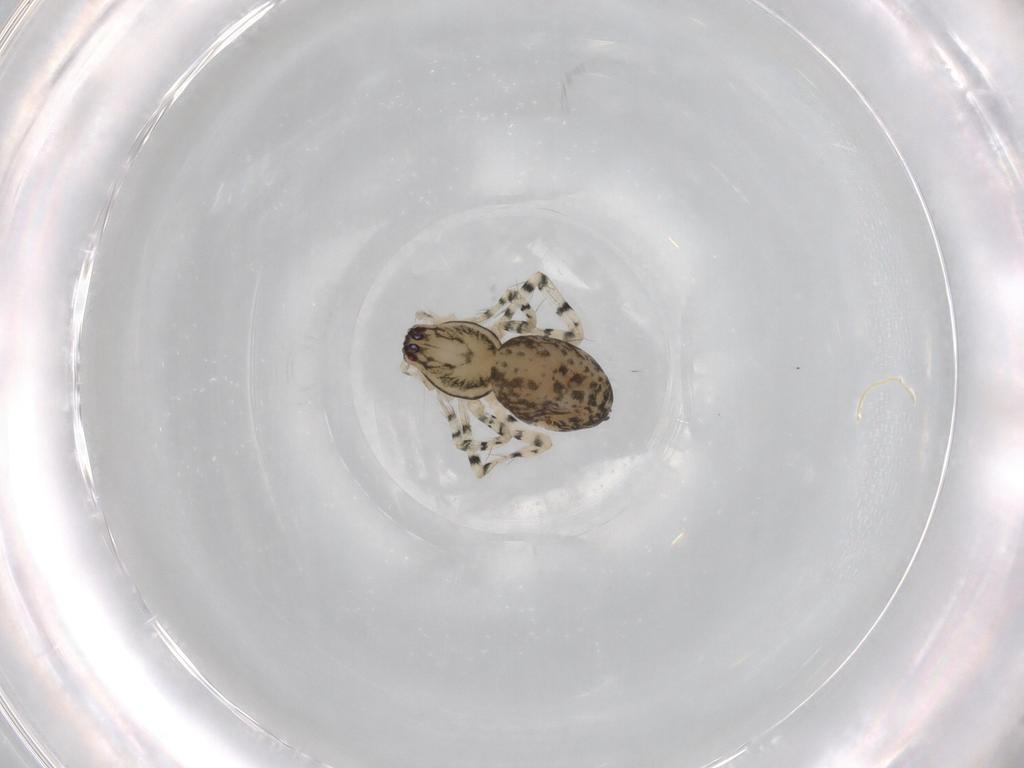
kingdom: Animalia
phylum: Arthropoda
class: Arachnida
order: Araneae
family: Anyphaenidae
